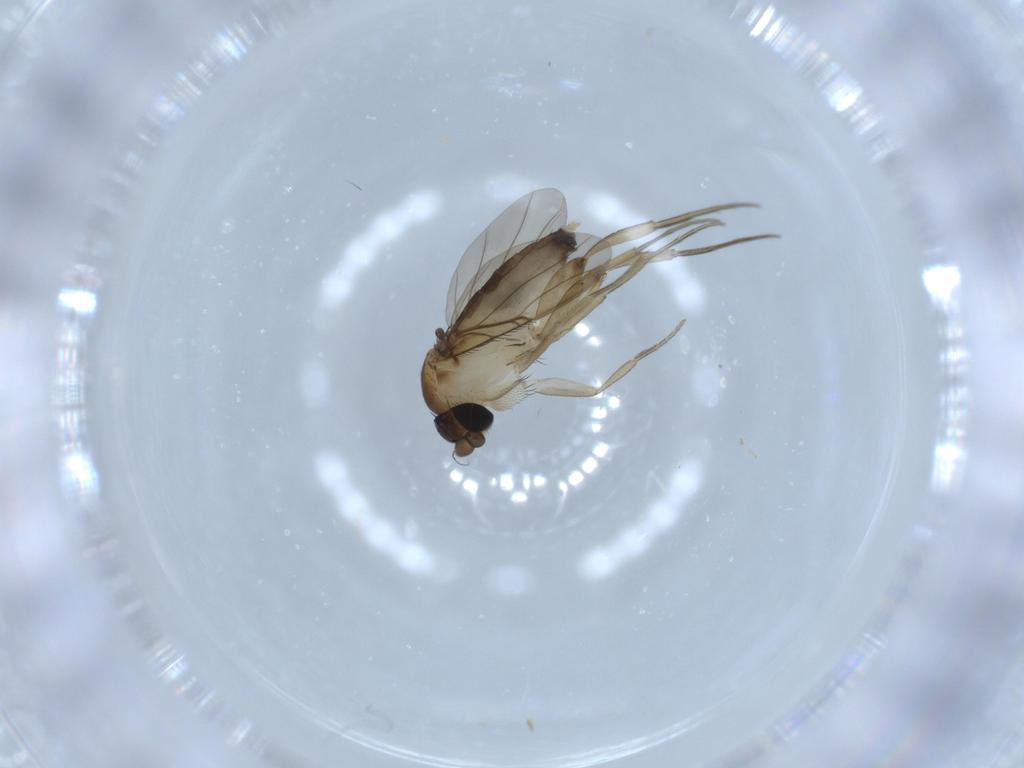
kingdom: Animalia
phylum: Arthropoda
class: Insecta
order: Diptera
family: Phoridae
